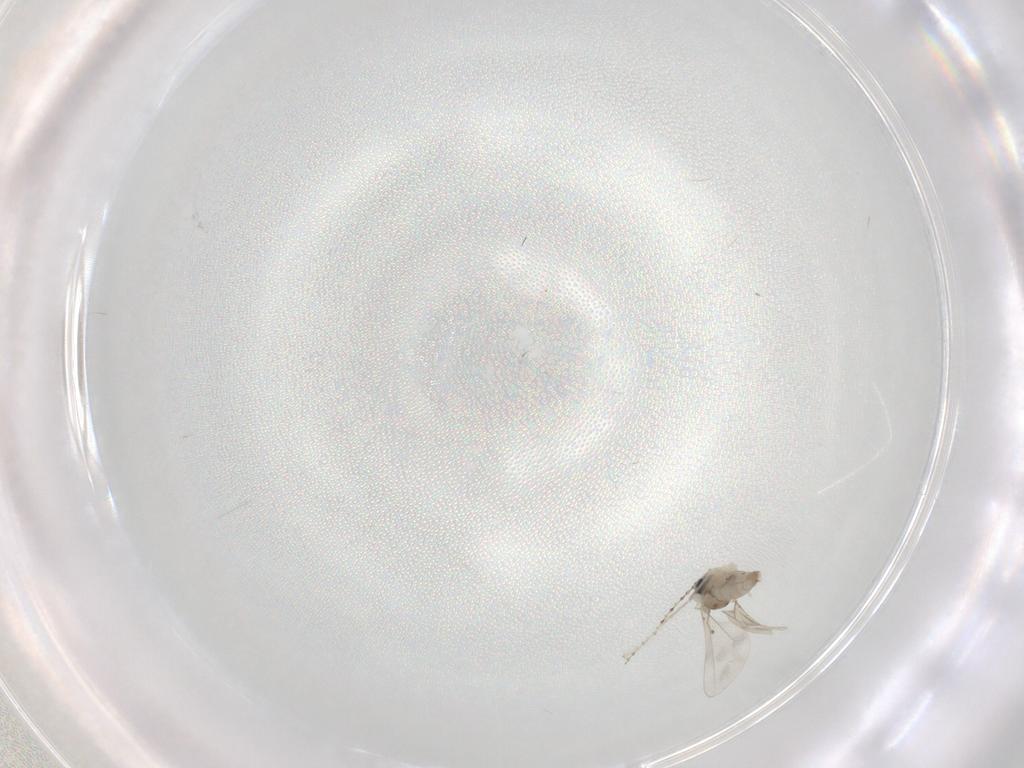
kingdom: Animalia
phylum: Arthropoda
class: Insecta
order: Diptera
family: Cecidomyiidae
